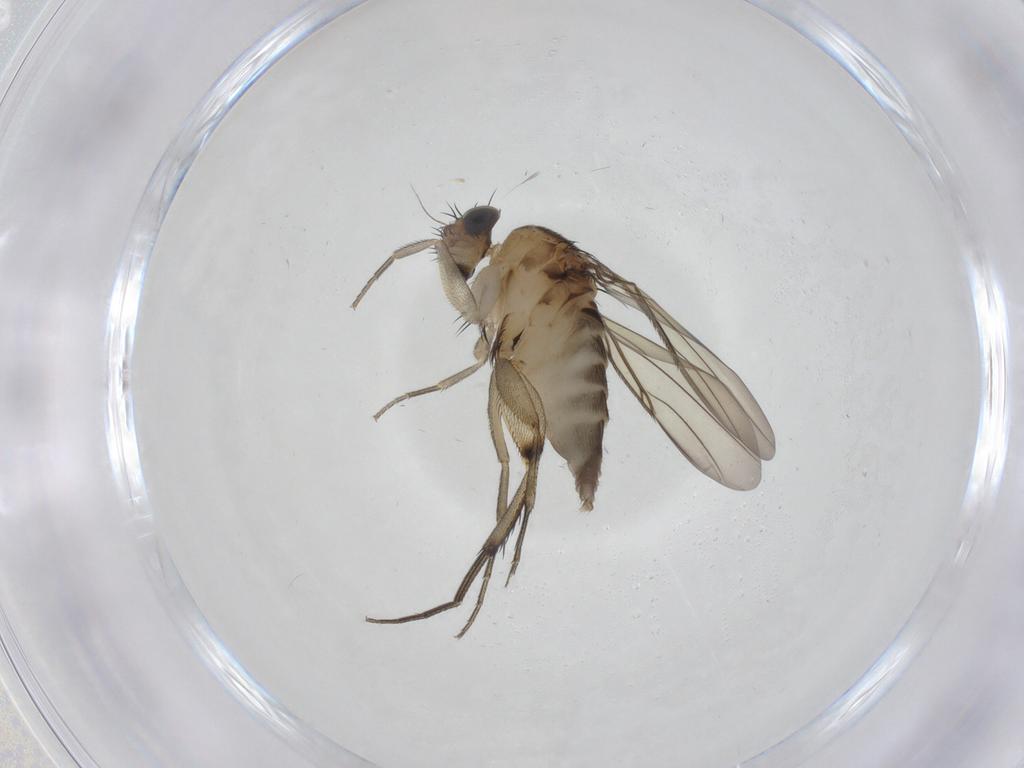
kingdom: Animalia
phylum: Arthropoda
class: Insecta
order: Diptera
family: Phoridae
